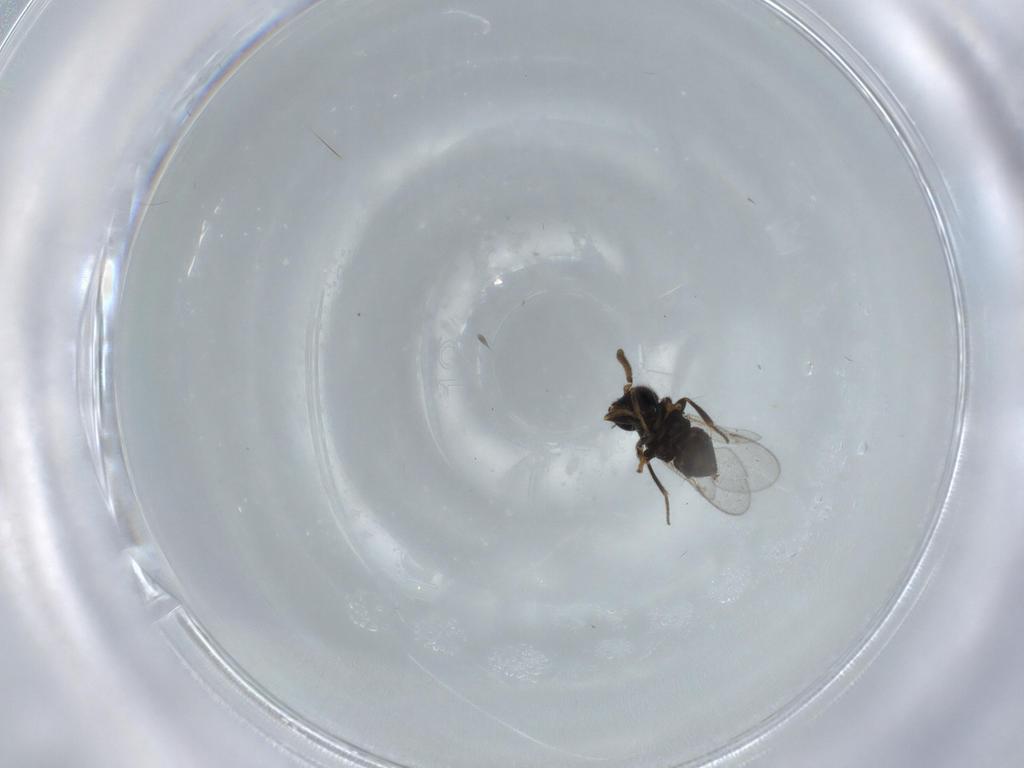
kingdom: Animalia
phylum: Arthropoda
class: Insecta
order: Hymenoptera
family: Encyrtidae
